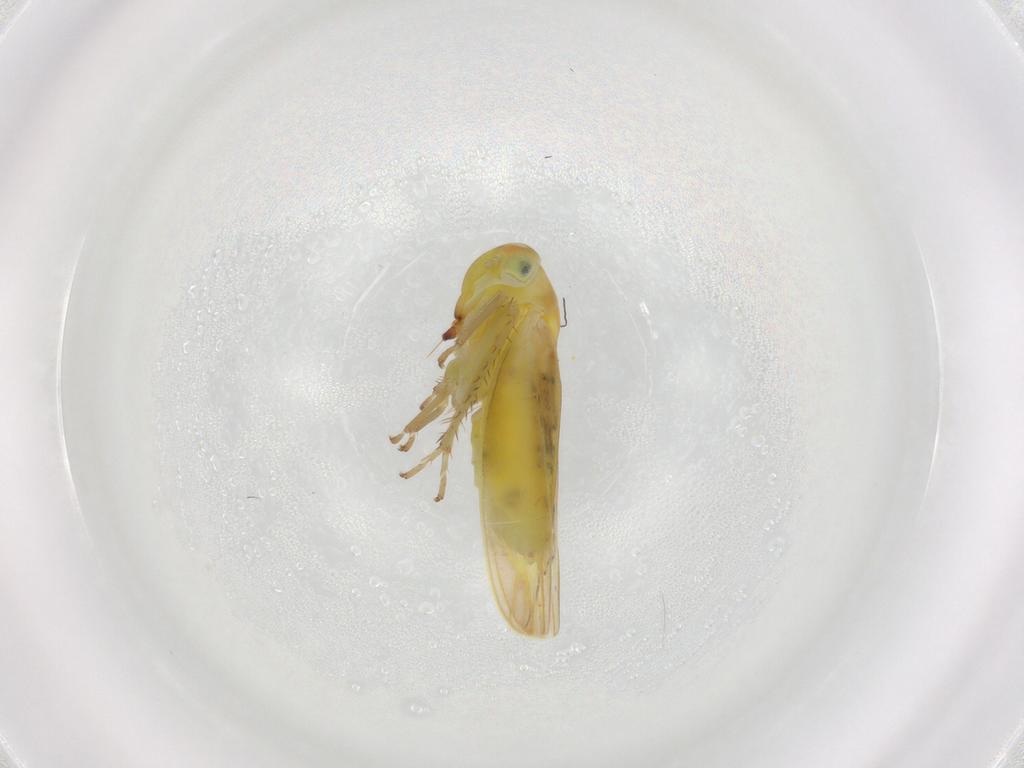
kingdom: Animalia
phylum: Arthropoda
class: Insecta
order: Hemiptera
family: Cicadellidae
